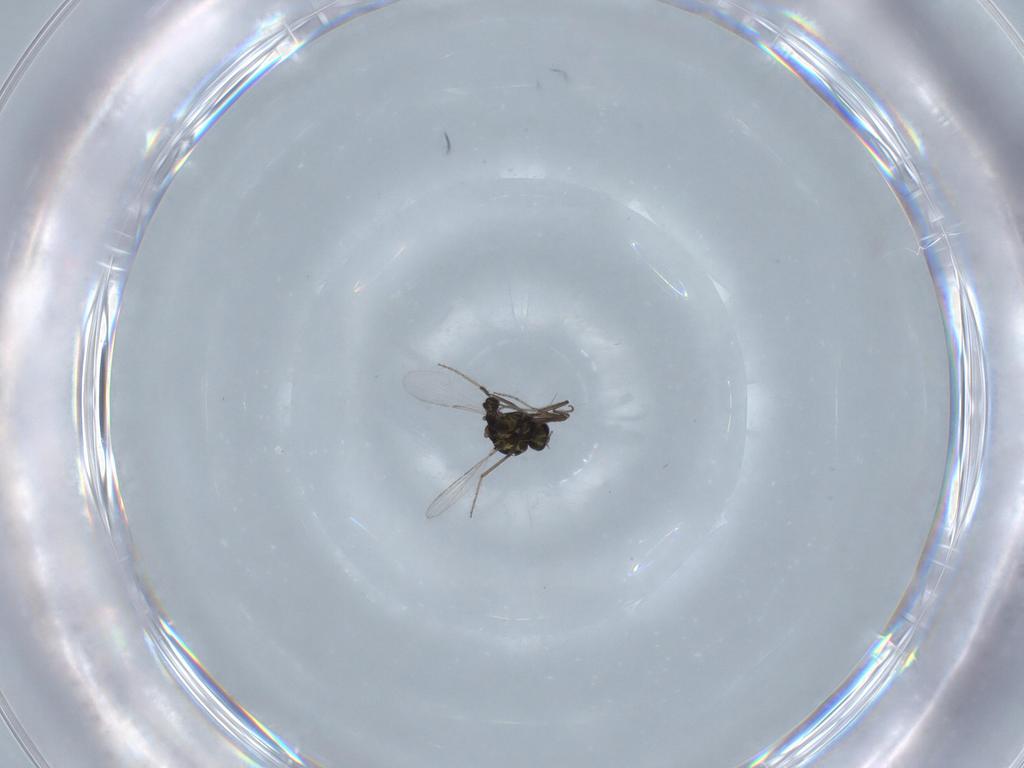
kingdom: Animalia
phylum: Arthropoda
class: Insecta
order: Diptera
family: Ceratopogonidae
